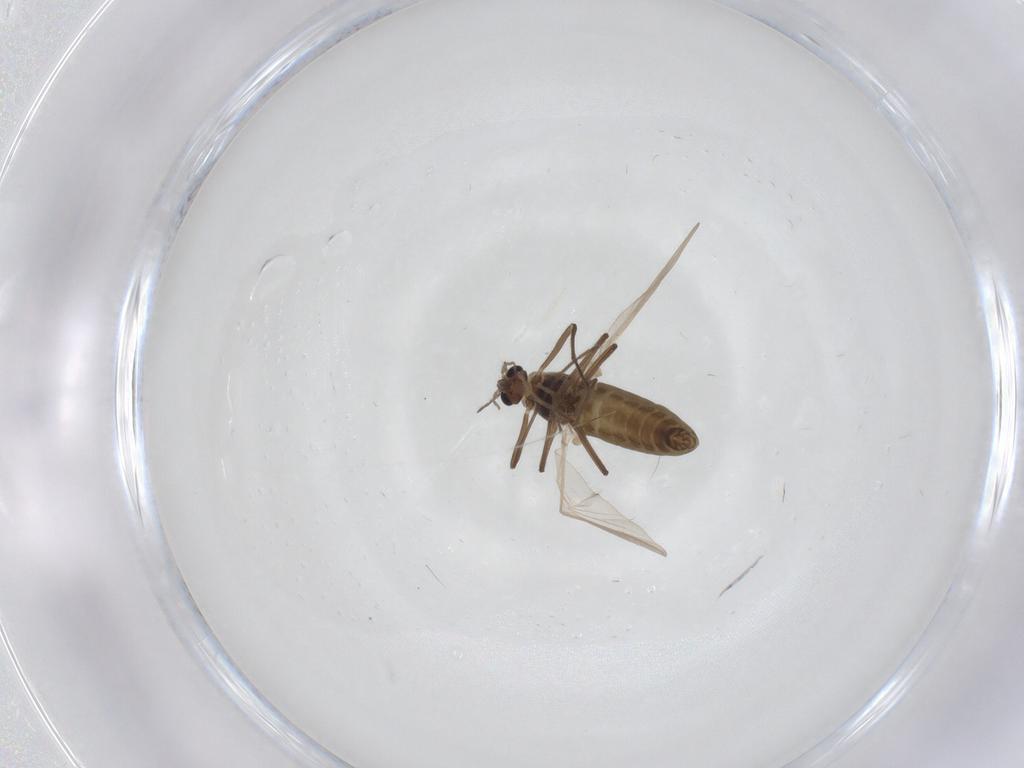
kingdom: Animalia
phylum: Arthropoda
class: Insecta
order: Diptera
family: Chironomidae
